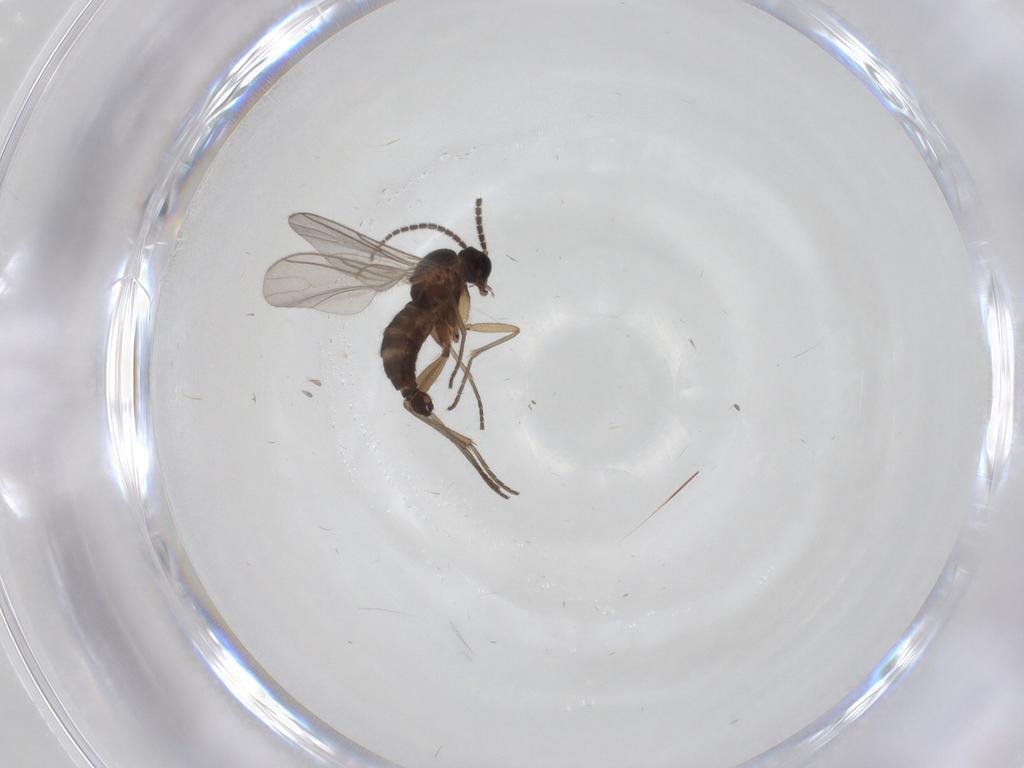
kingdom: Animalia
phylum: Arthropoda
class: Insecta
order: Diptera
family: Sciaridae
